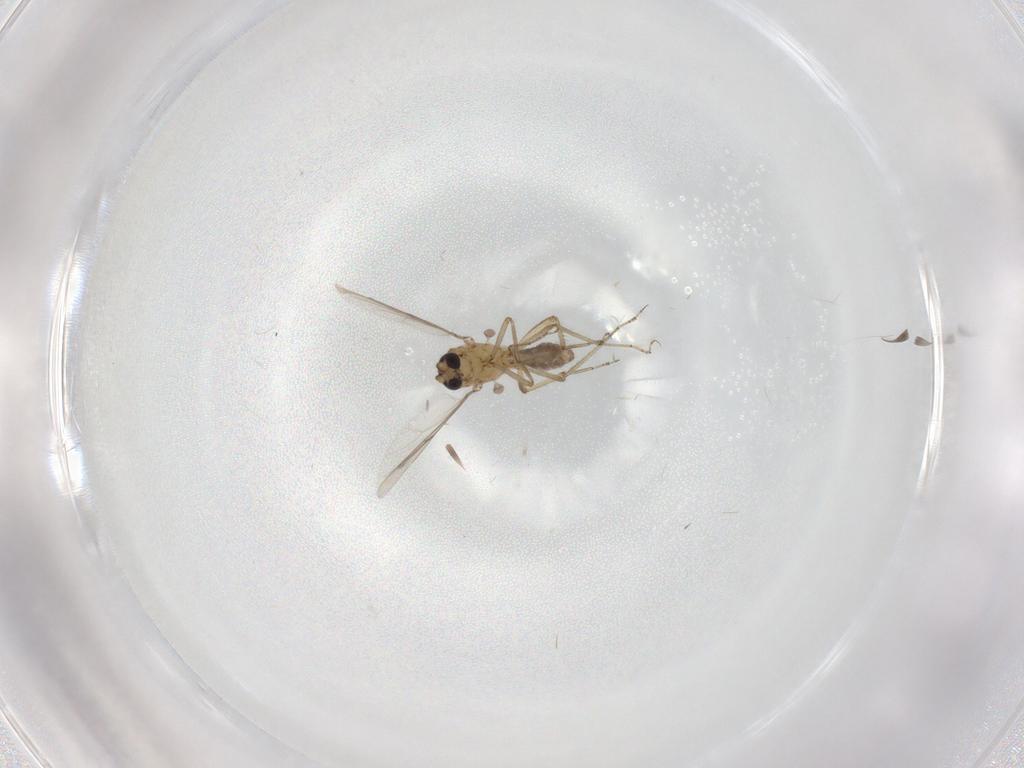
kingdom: Animalia
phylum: Arthropoda
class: Insecta
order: Diptera
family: Ceratopogonidae
